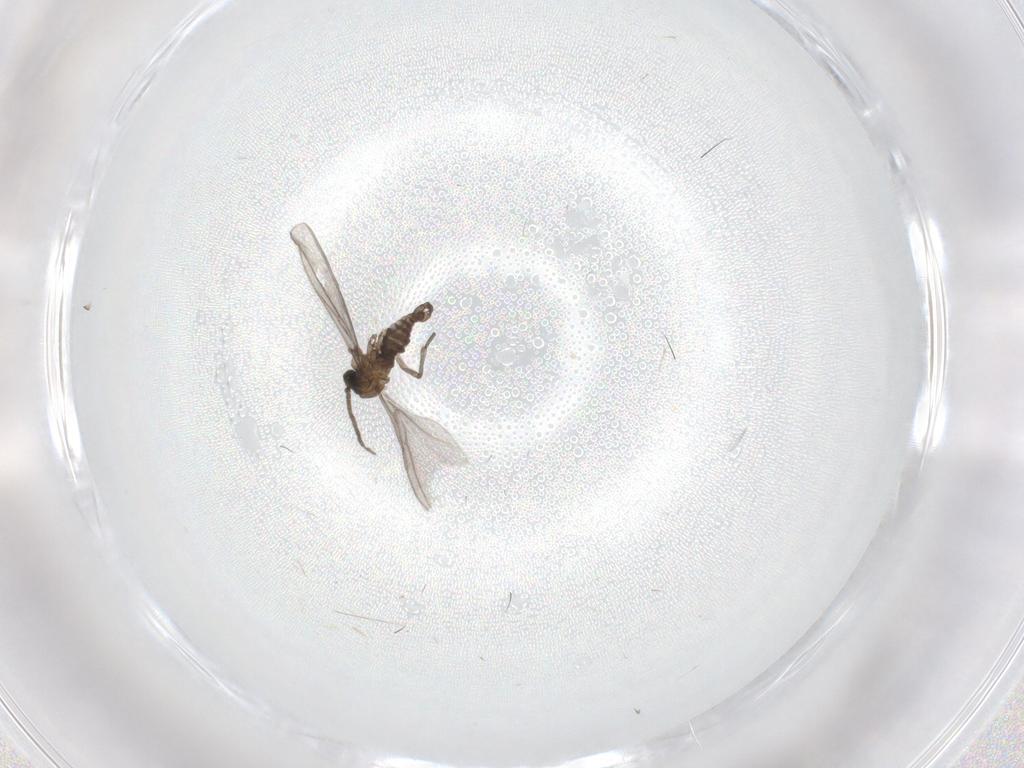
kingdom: Animalia
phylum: Arthropoda
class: Insecta
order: Diptera
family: Sciaridae
